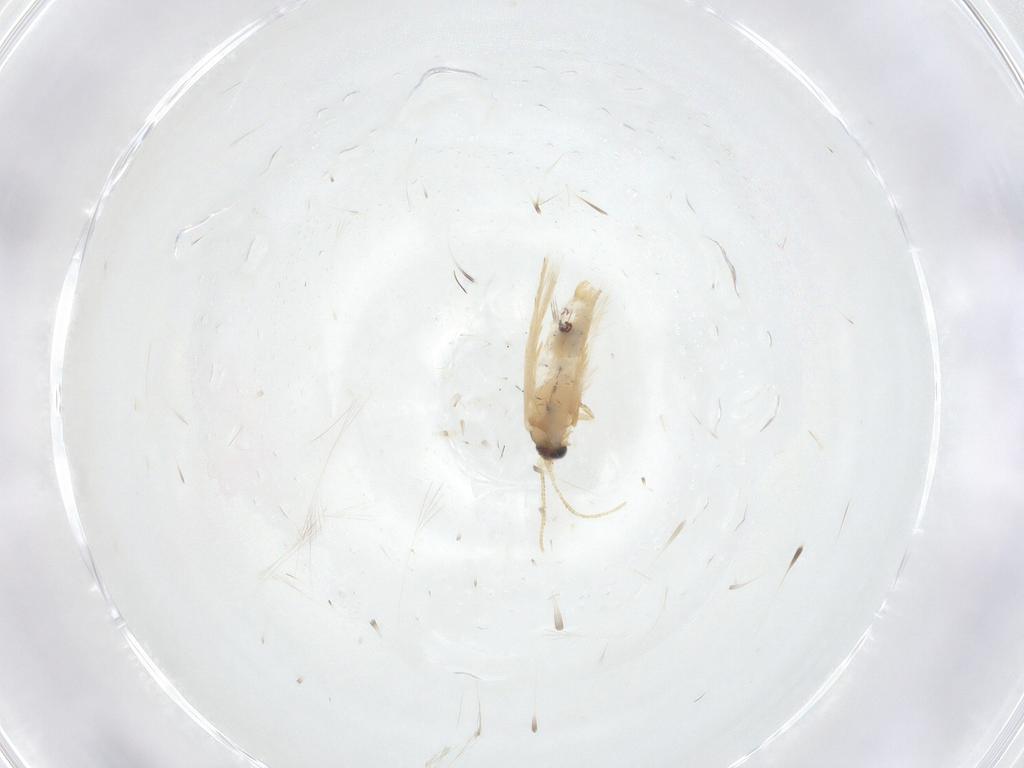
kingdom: Animalia
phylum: Arthropoda
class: Insecta
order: Lepidoptera
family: Nepticulidae
